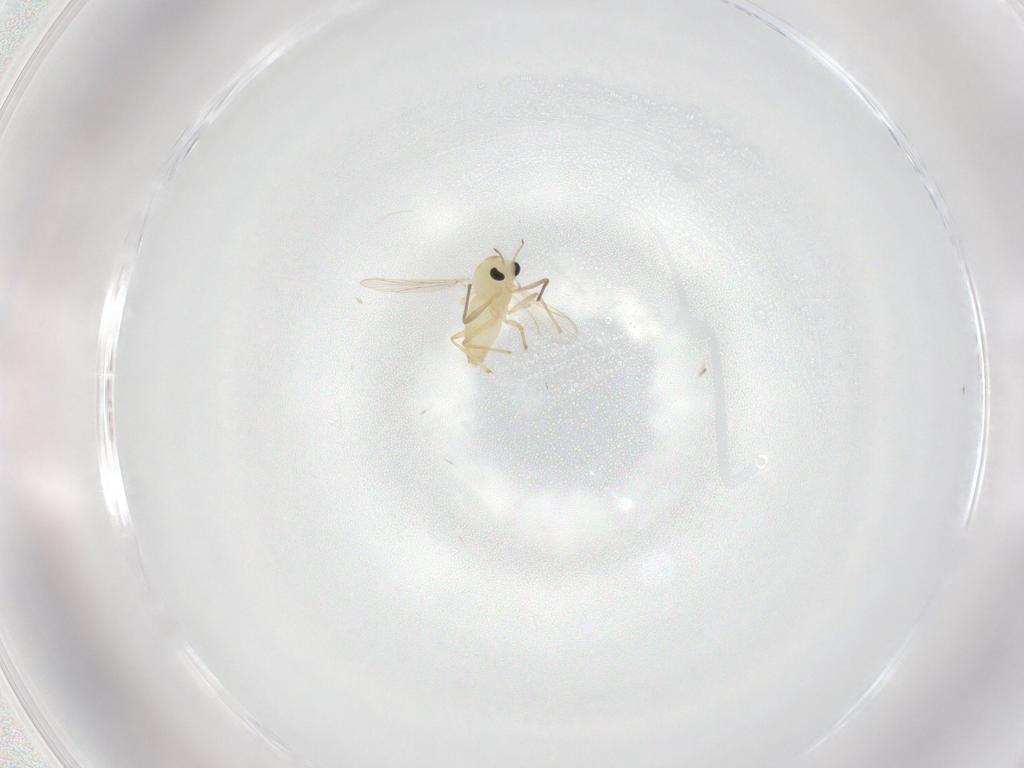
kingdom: Animalia
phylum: Arthropoda
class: Insecta
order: Diptera
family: Chironomidae
